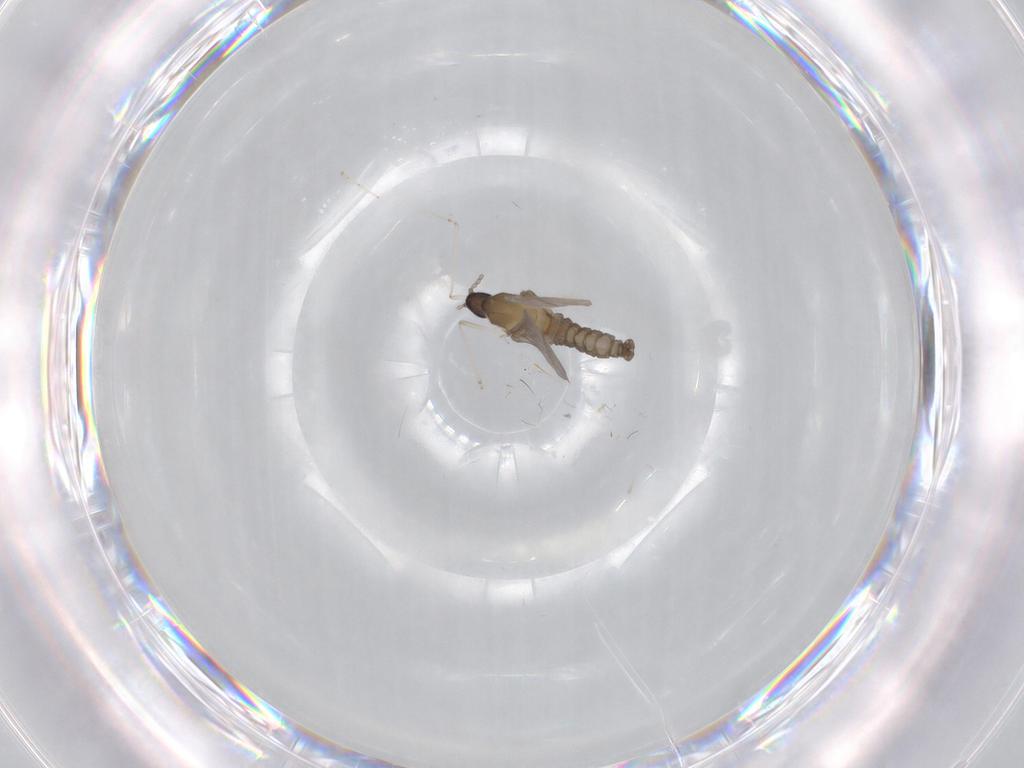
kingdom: Animalia
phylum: Arthropoda
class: Insecta
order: Diptera
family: Cecidomyiidae
